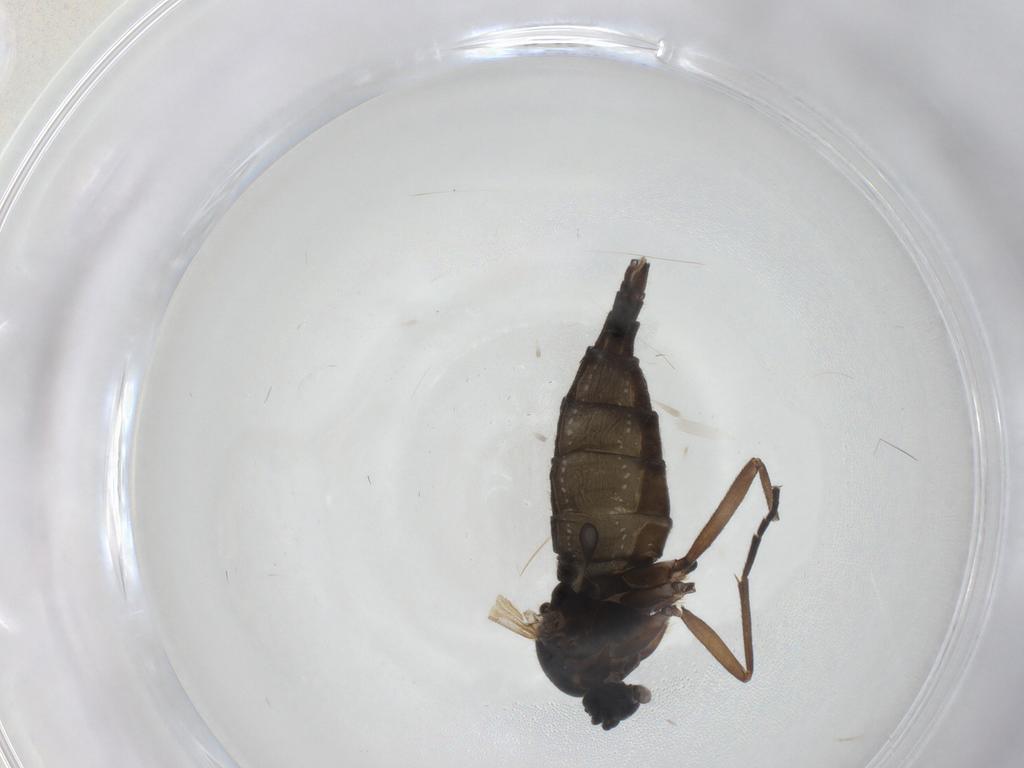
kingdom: Animalia
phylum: Arthropoda
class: Insecta
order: Diptera
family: Sciaridae
